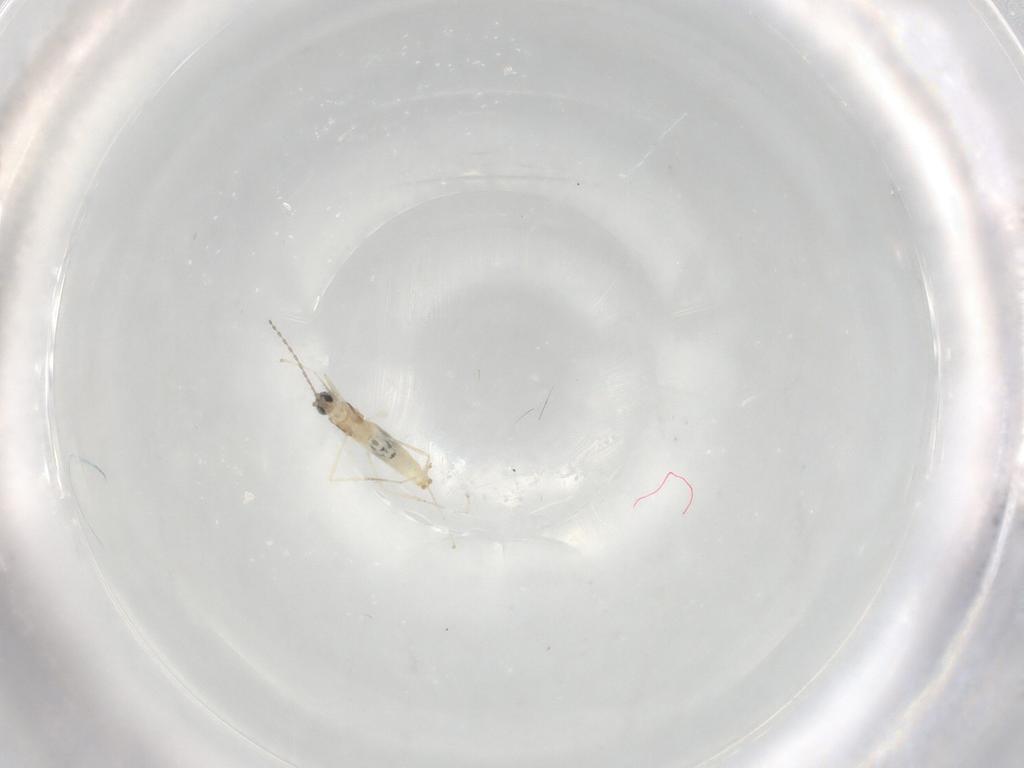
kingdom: Animalia
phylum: Arthropoda
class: Insecta
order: Diptera
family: Cecidomyiidae
